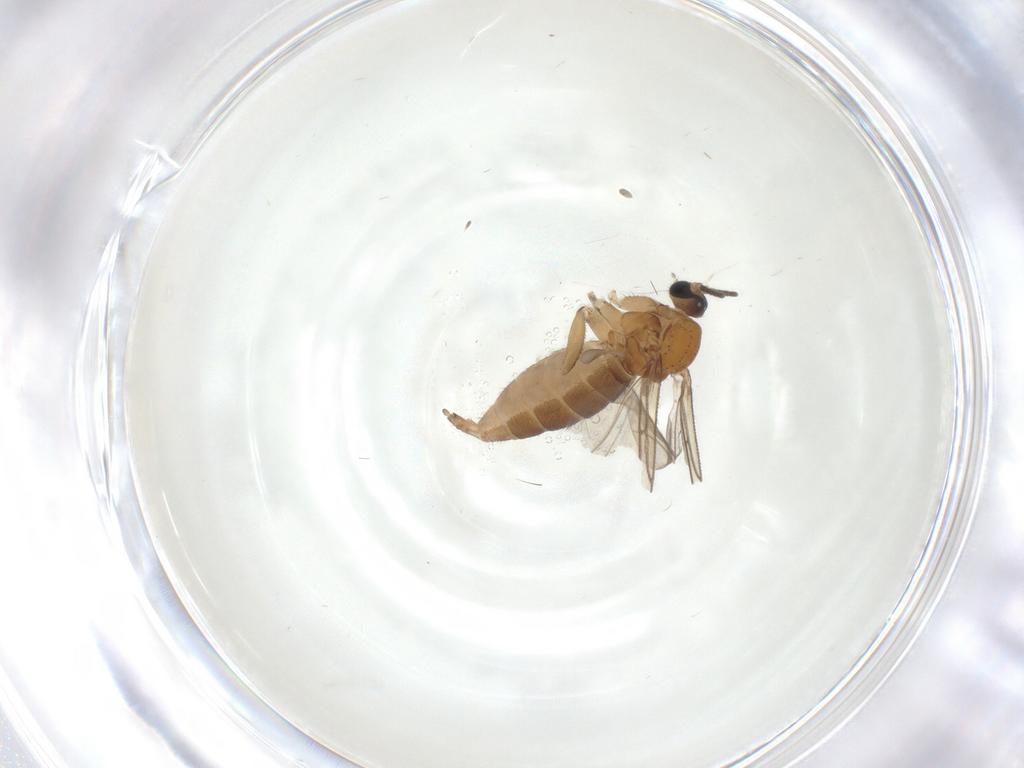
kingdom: Animalia
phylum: Arthropoda
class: Insecta
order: Diptera
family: Sciaridae
